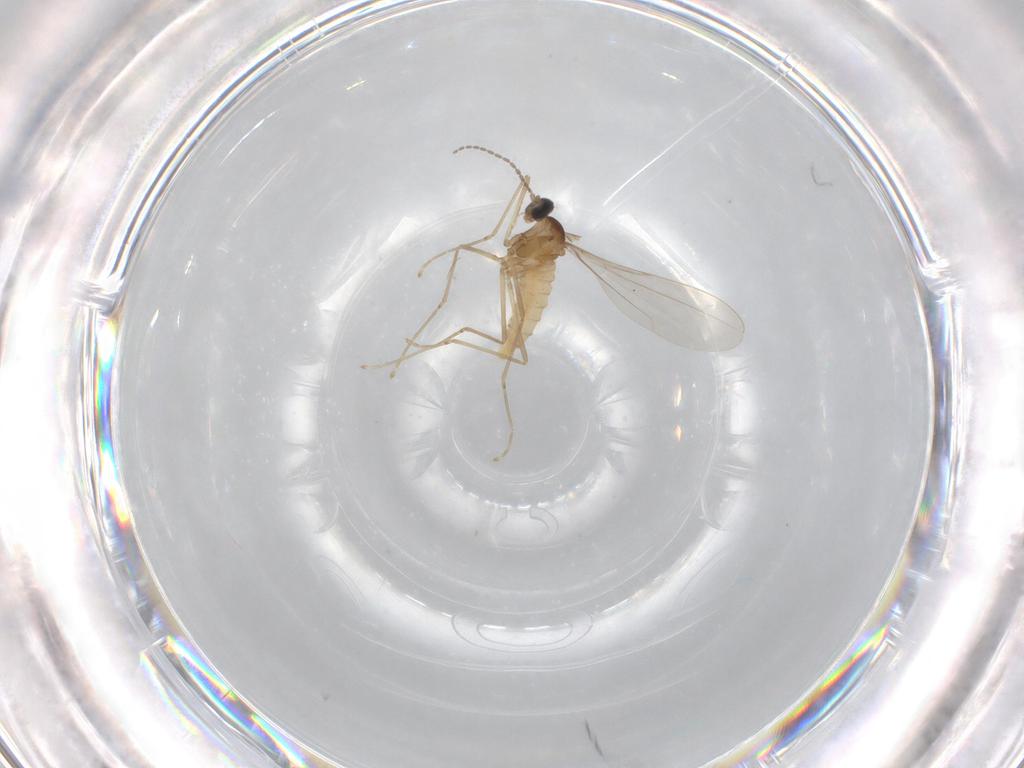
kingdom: Animalia
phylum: Arthropoda
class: Insecta
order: Diptera
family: Cecidomyiidae
